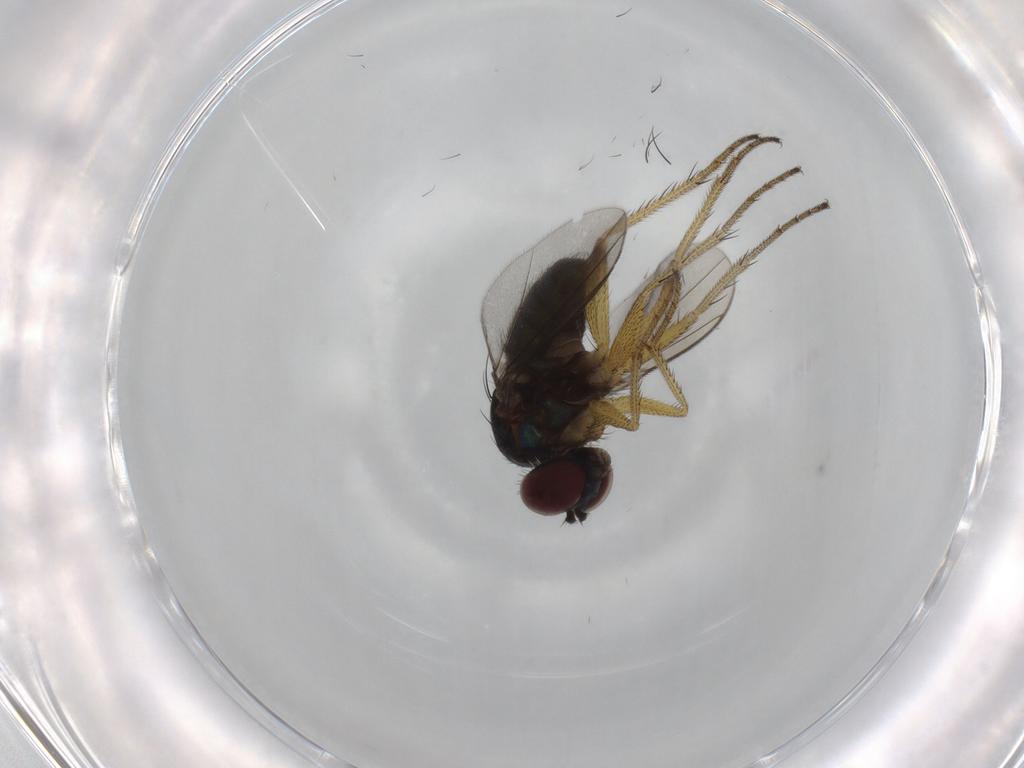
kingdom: Animalia
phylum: Arthropoda
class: Insecta
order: Diptera
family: Dolichopodidae
